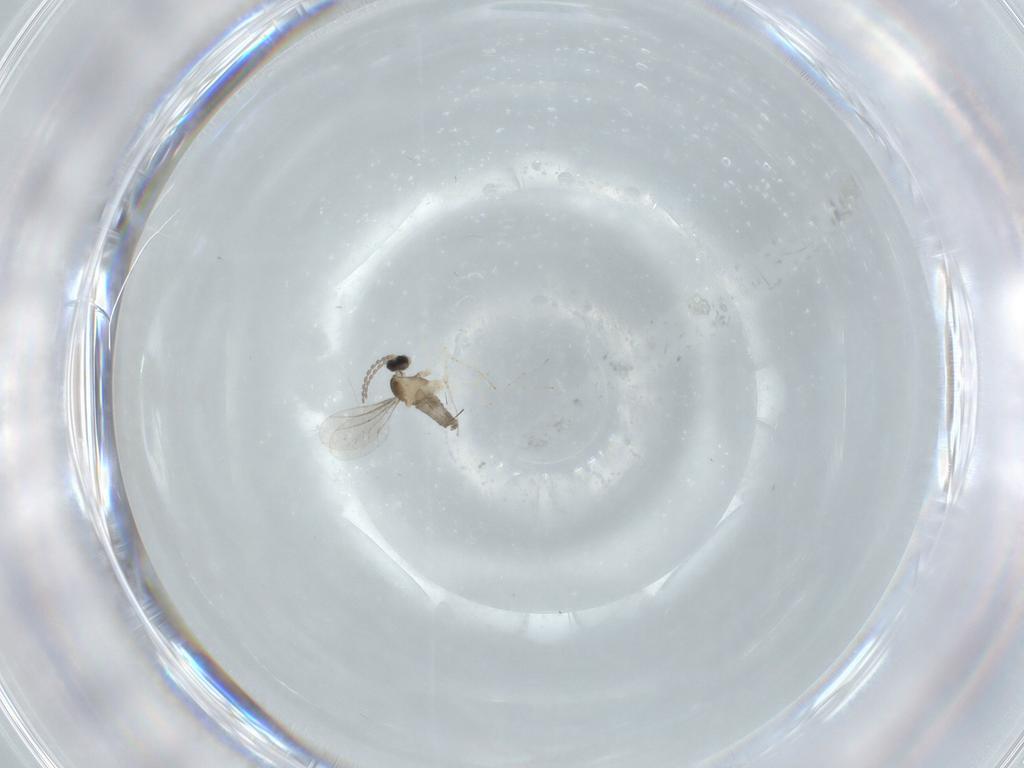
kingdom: Animalia
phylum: Arthropoda
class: Insecta
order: Diptera
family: Cecidomyiidae
